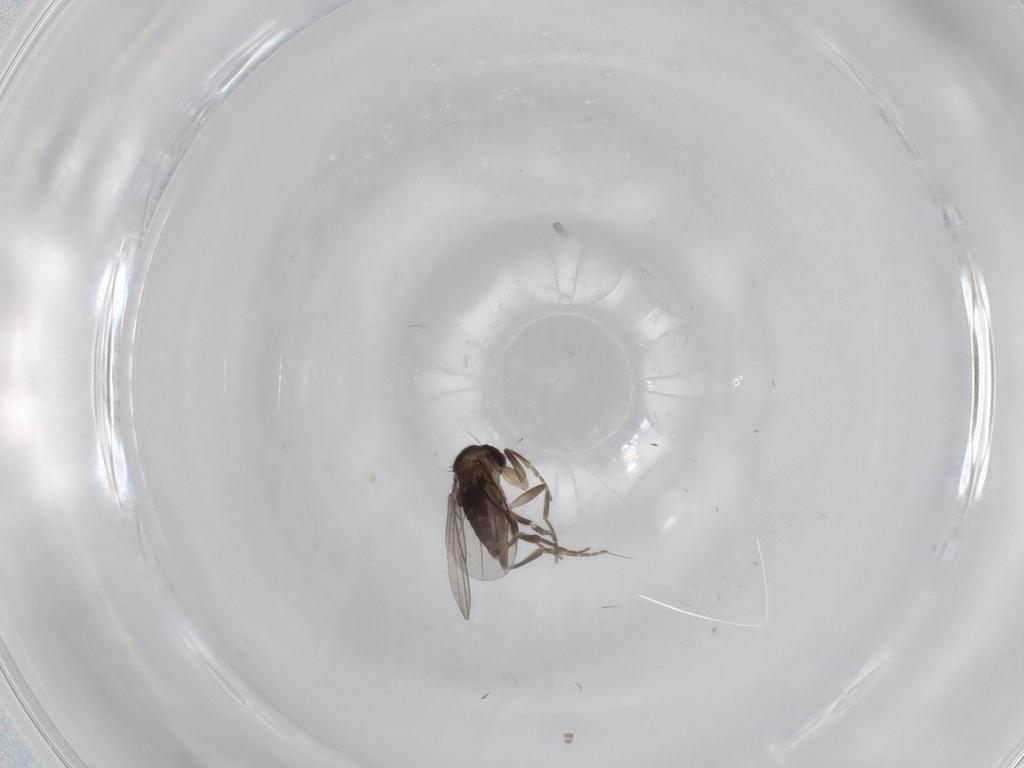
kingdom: Animalia
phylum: Arthropoda
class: Insecta
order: Diptera
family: Ceratopogonidae
